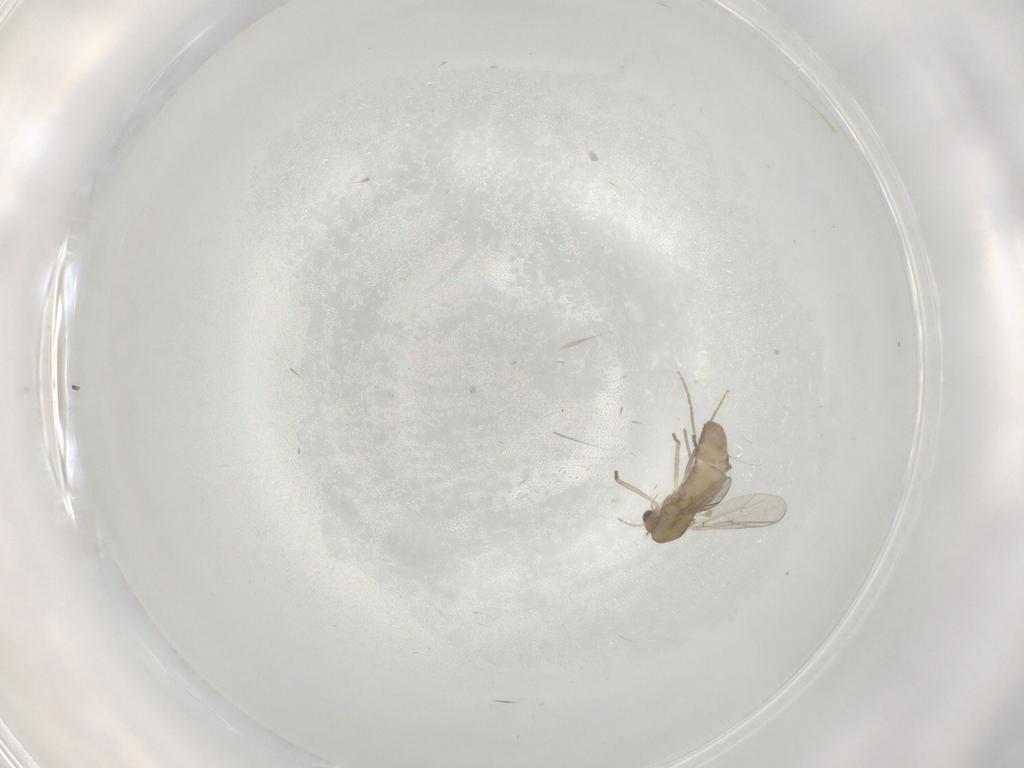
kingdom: Animalia
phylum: Arthropoda
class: Insecta
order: Diptera
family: Chironomidae
